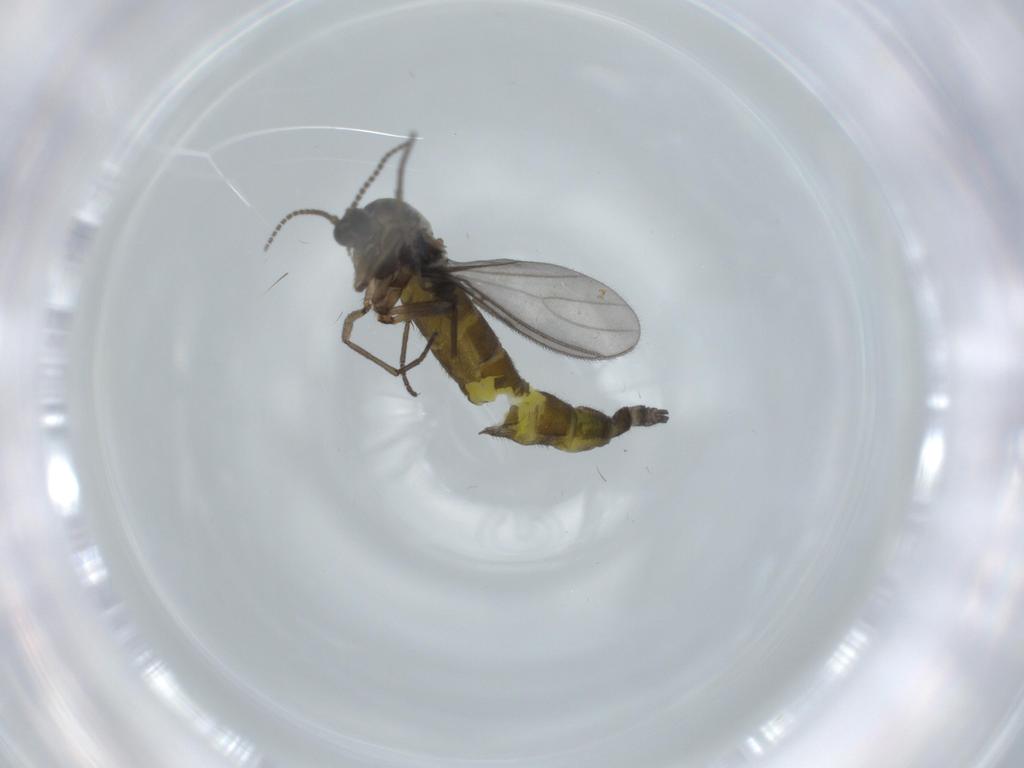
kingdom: Animalia
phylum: Arthropoda
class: Insecta
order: Diptera
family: Sciaridae
